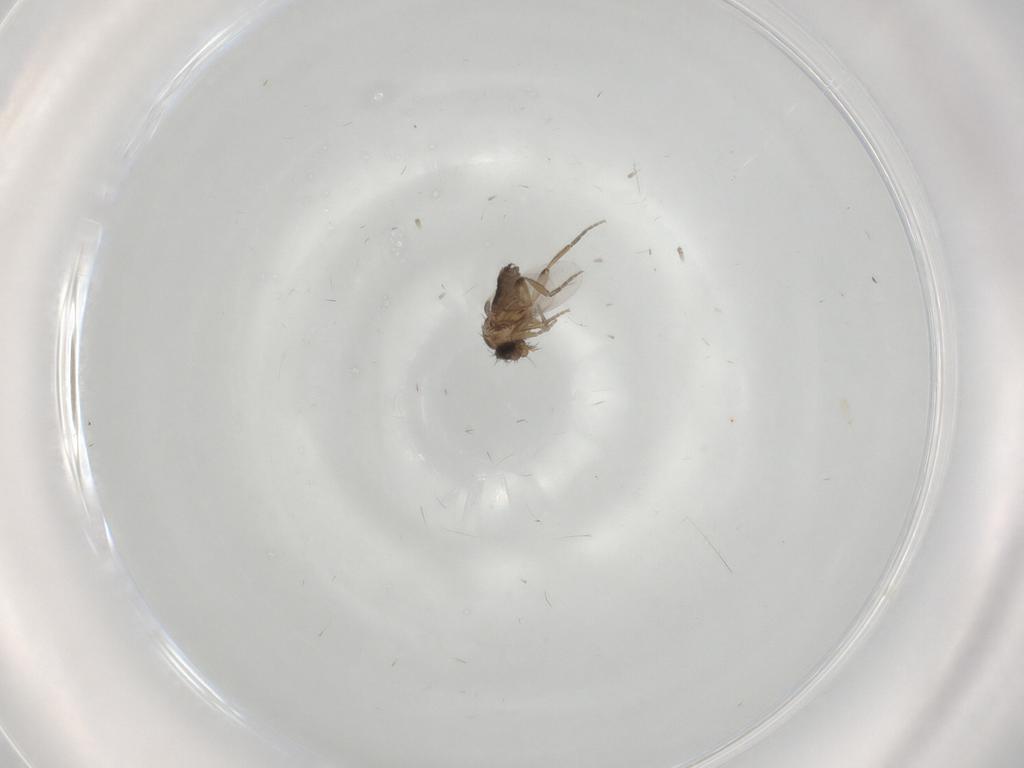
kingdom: Animalia
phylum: Arthropoda
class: Insecta
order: Diptera
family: Phoridae
